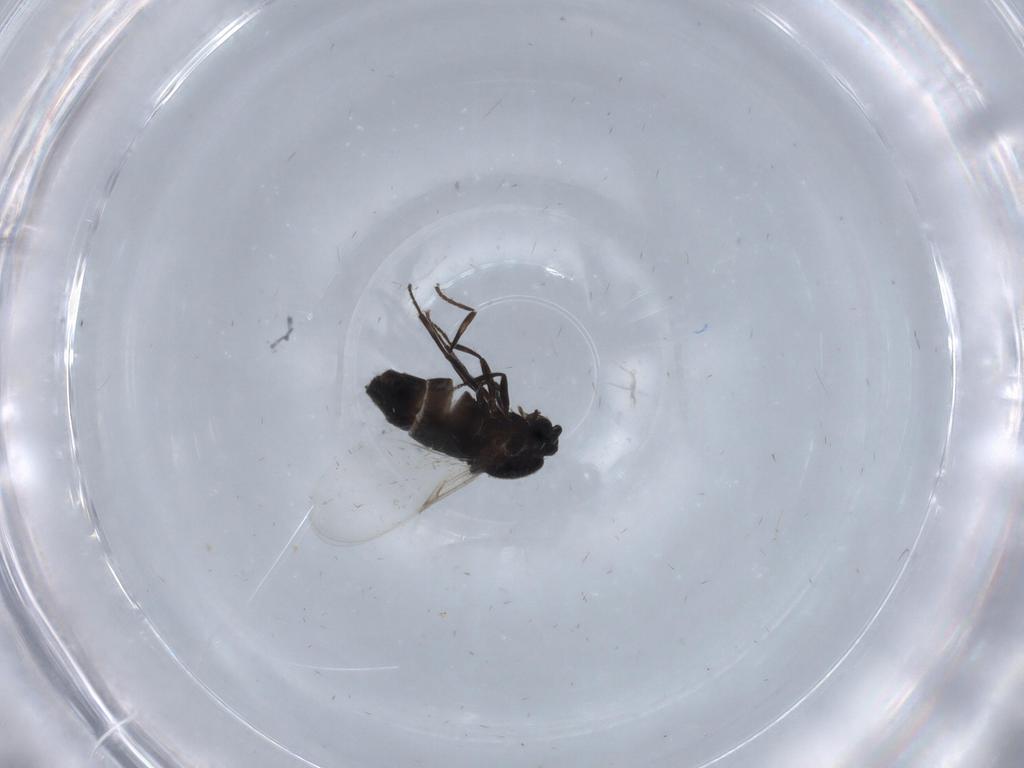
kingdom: Animalia
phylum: Arthropoda
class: Insecta
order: Diptera
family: Scatopsidae
